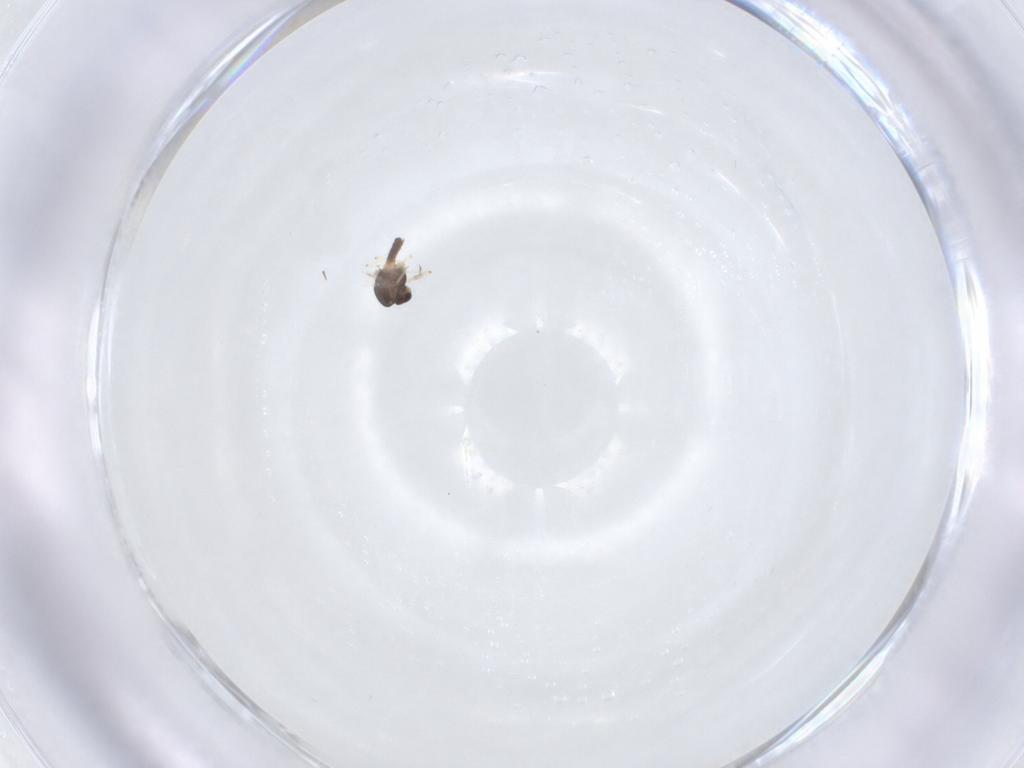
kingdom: Animalia
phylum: Arthropoda
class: Insecta
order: Diptera
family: Chironomidae
